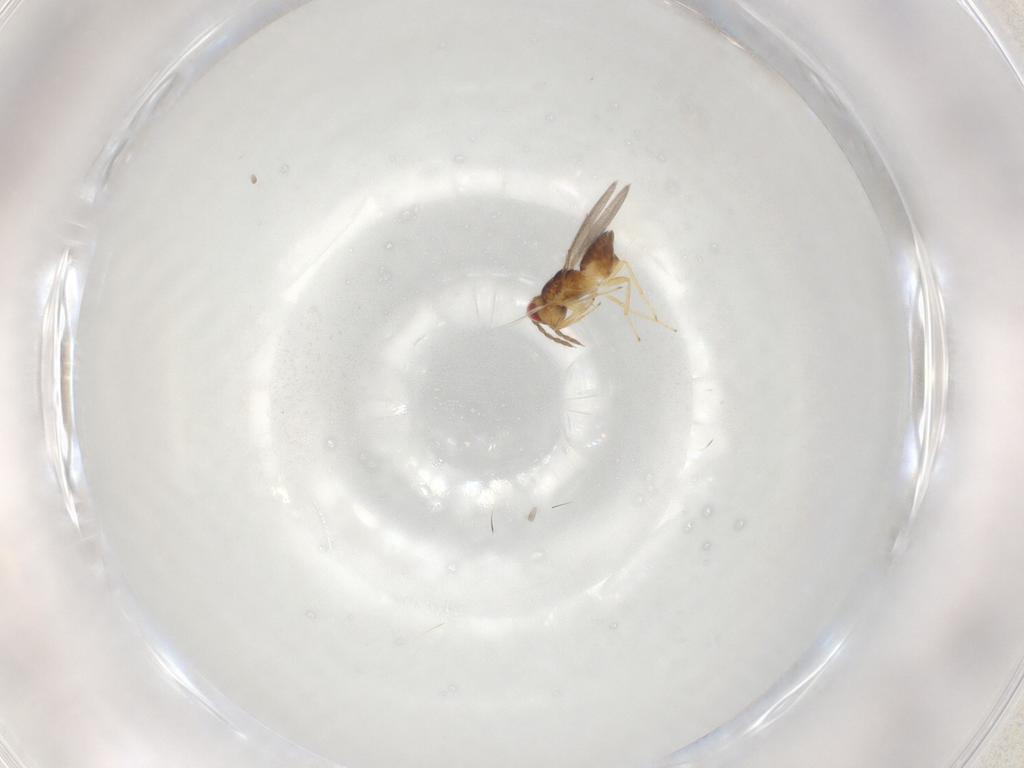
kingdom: Animalia
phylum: Arthropoda
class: Insecta
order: Hymenoptera
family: Eulophidae
